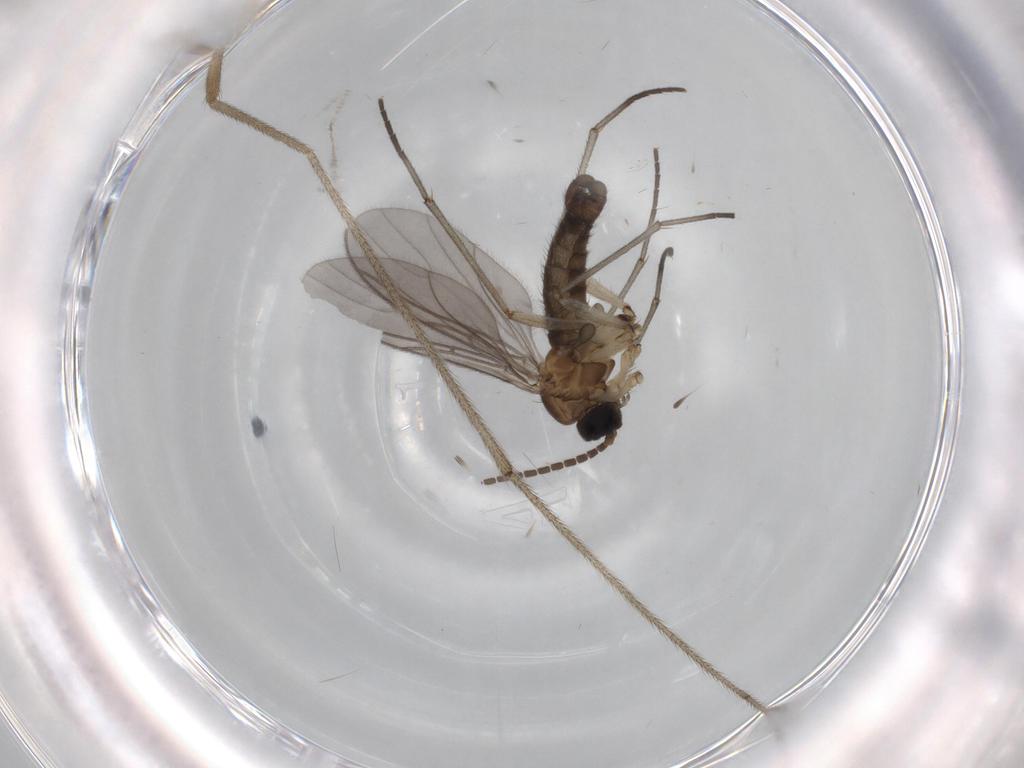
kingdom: Animalia
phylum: Arthropoda
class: Insecta
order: Diptera
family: Sciaridae
